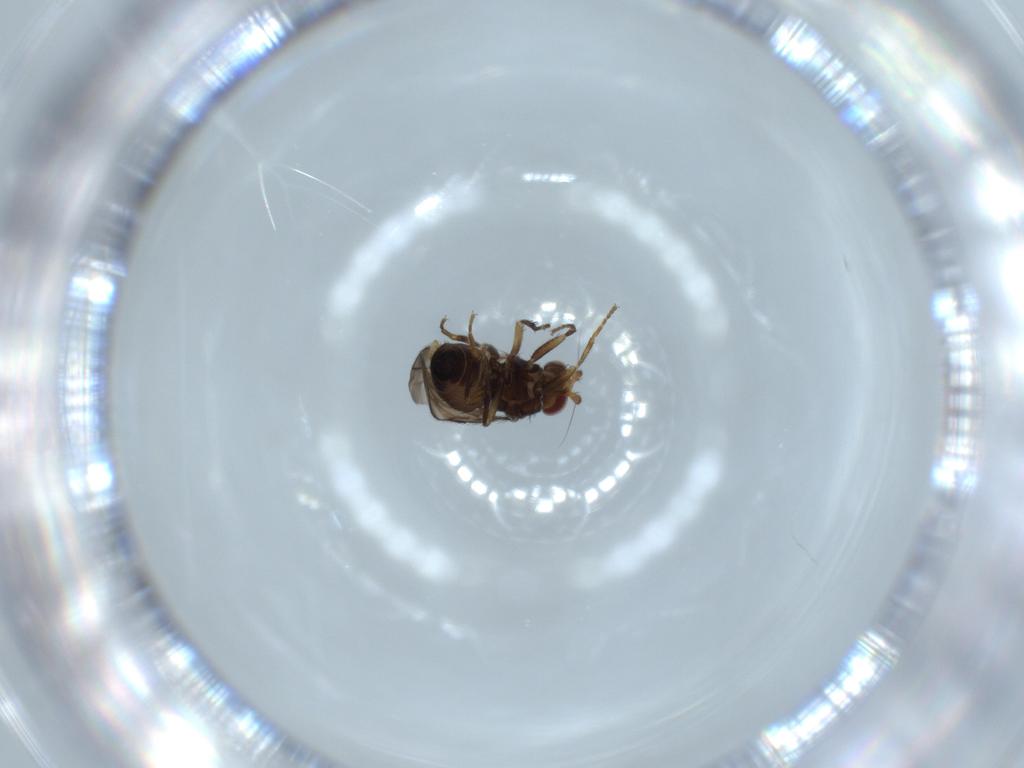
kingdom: Animalia
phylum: Arthropoda
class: Insecta
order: Diptera
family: Sphaeroceridae
